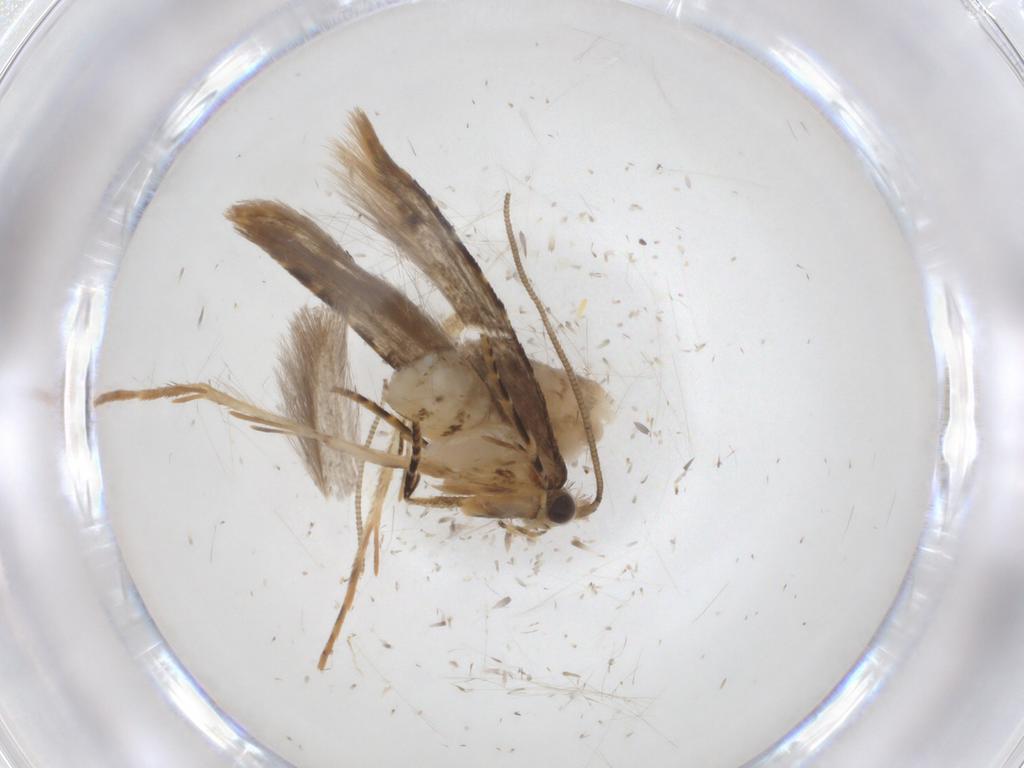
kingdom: Animalia
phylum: Arthropoda
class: Insecta
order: Lepidoptera
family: Tineidae
